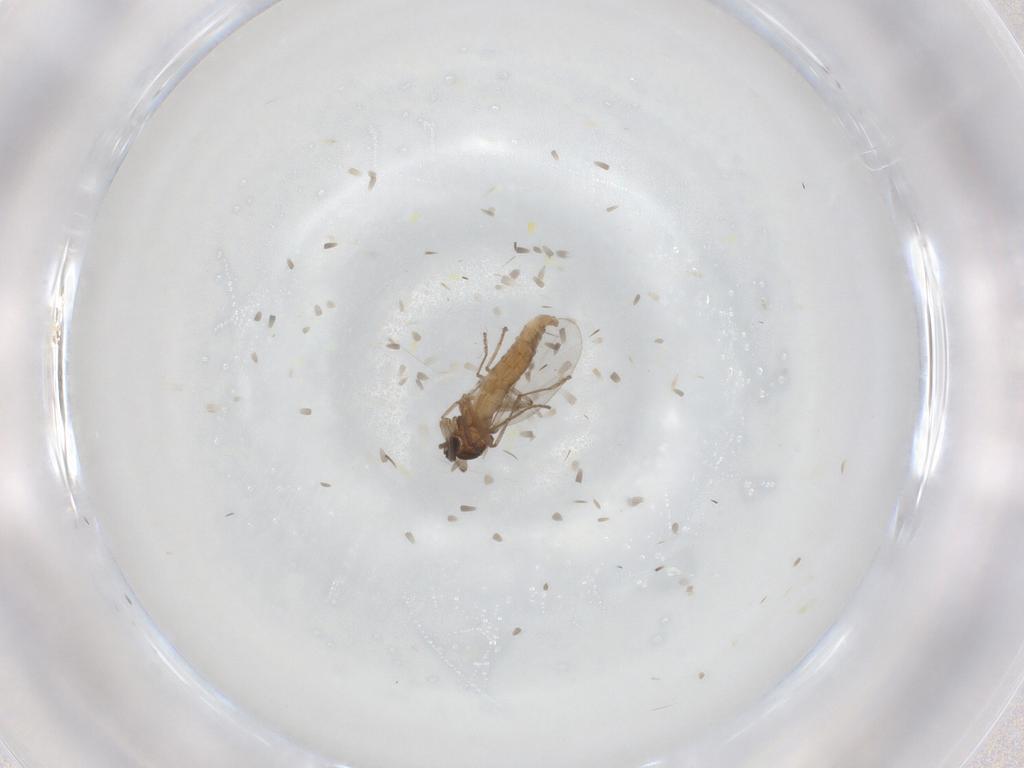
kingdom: Animalia
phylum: Arthropoda
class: Insecta
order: Diptera
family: Cecidomyiidae
